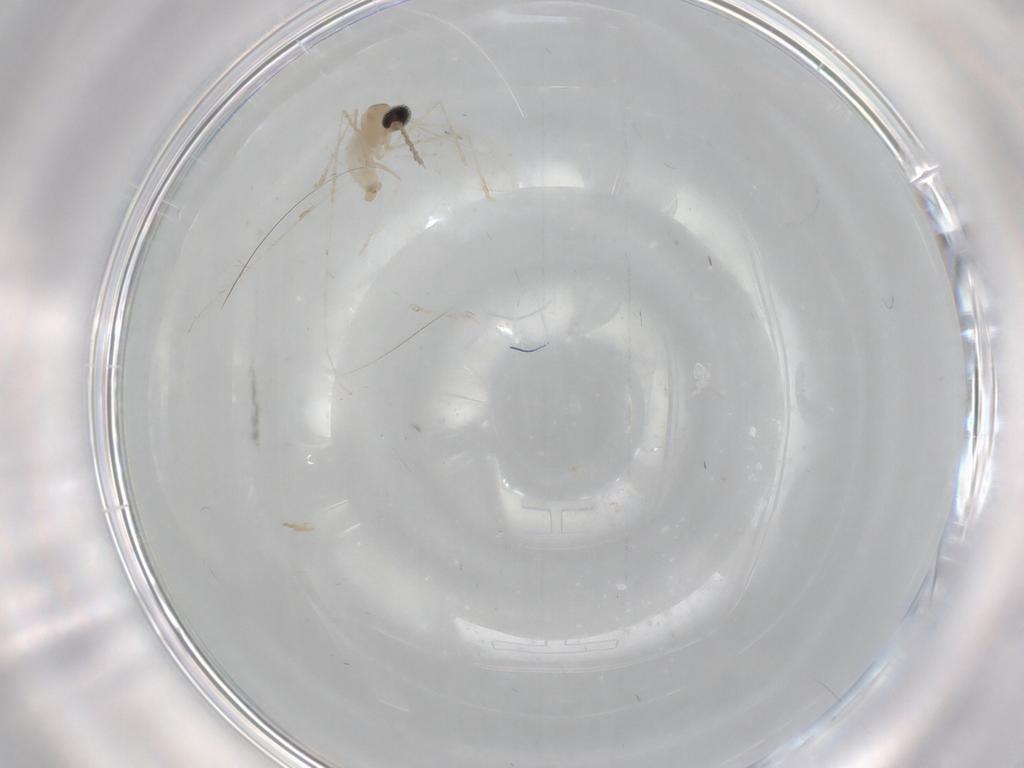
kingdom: Animalia
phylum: Arthropoda
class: Insecta
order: Diptera
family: Cecidomyiidae
